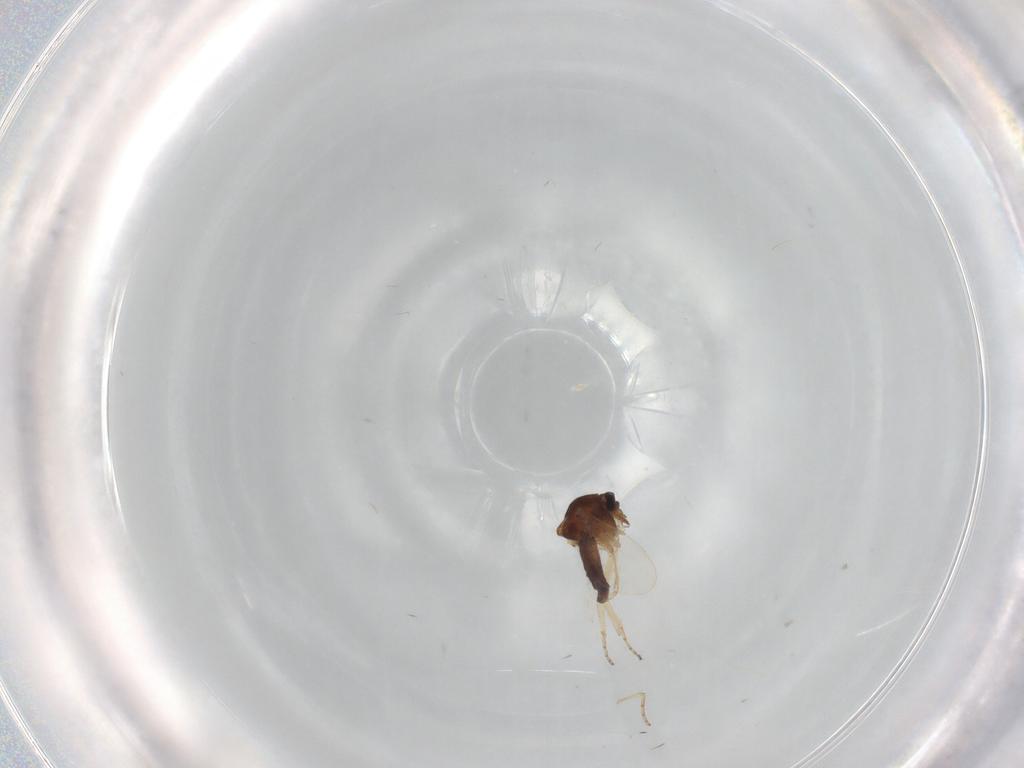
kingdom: Animalia
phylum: Arthropoda
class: Insecta
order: Diptera
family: Ceratopogonidae
